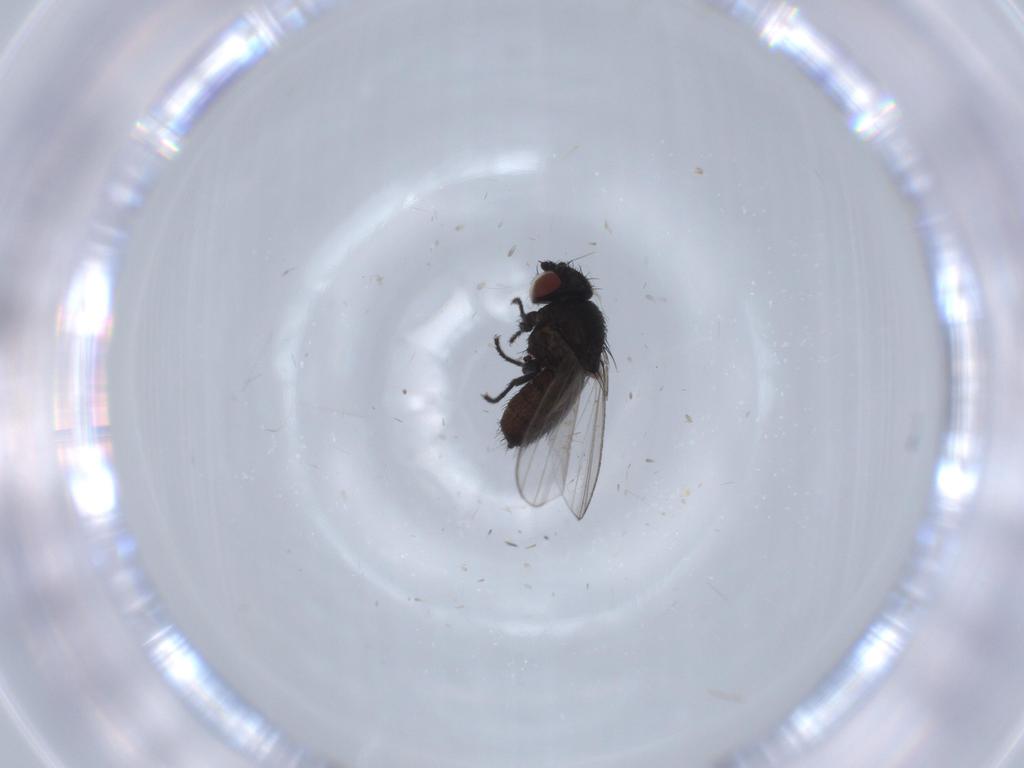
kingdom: Animalia
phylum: Arthropoda
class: Insecta
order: Diptera
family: Milichiidae
